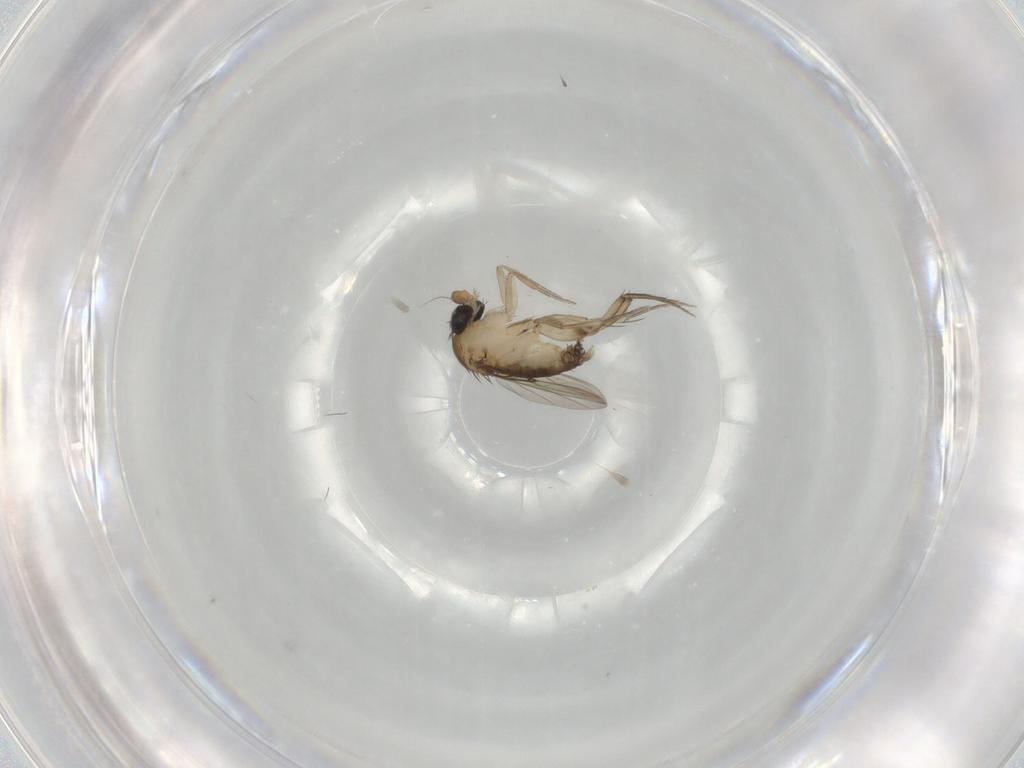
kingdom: Animalia
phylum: Arthropoda
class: Insecta
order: Diptera
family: Phoridae
